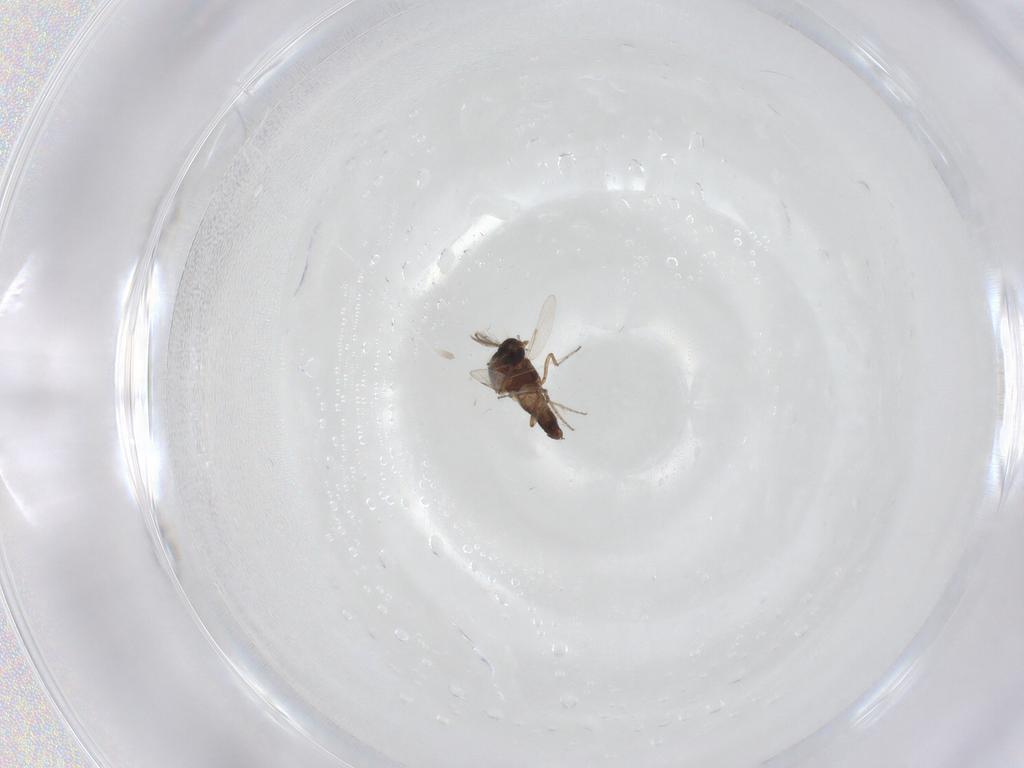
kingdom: Animalia
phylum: Arthropoda
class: Insecta
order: Diptera
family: Ceratopogonidae
